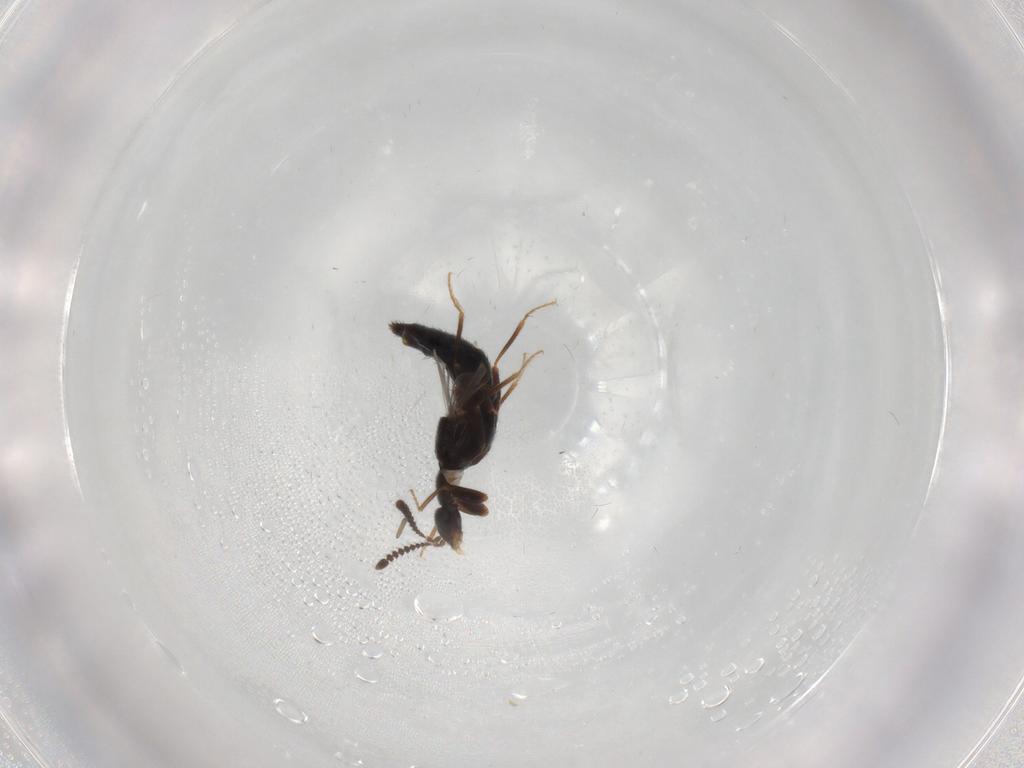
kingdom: Animalia
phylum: Arthropoda
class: Insecta
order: Coleoptera
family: Staphylinidae
